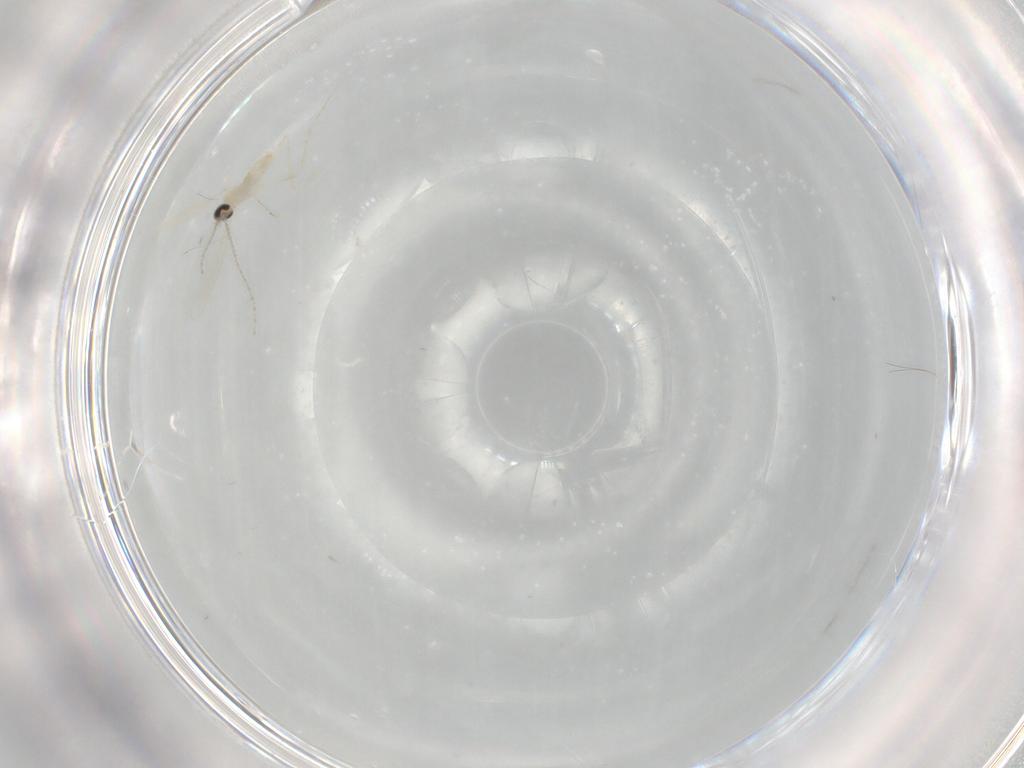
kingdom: Animalia
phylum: Arthropoda
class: Insecta
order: Diptera
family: Cecidomyiidae
